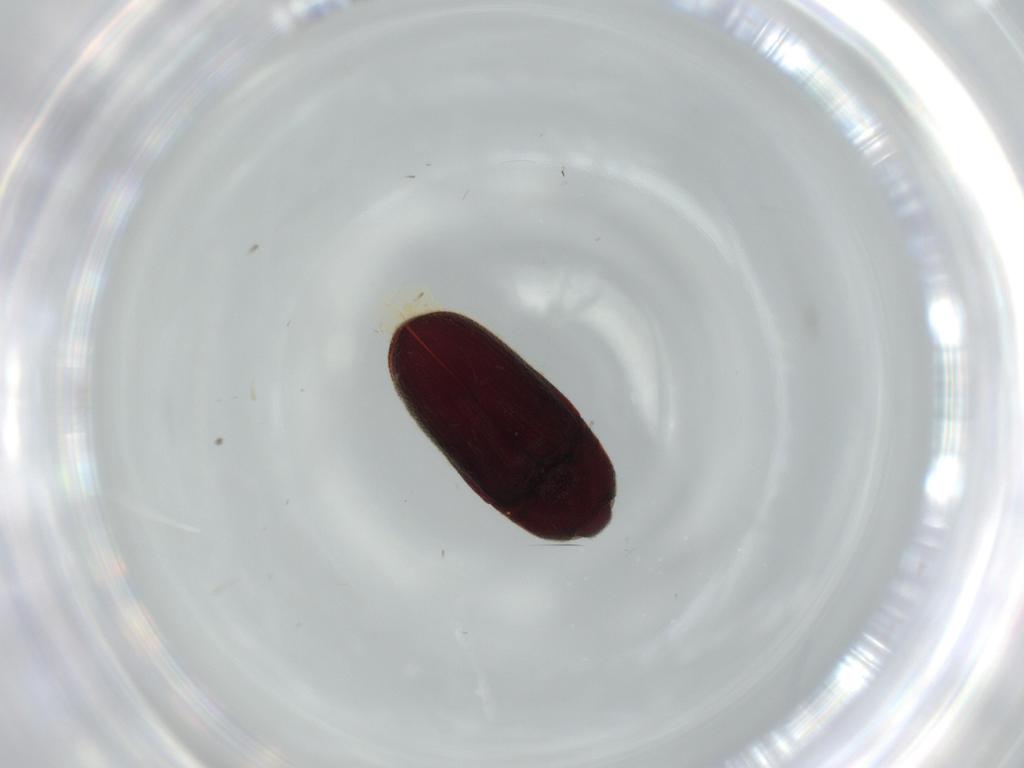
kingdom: Animalia
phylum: Arthropoda
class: Insecta
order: Coleoptera
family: Throscidae
